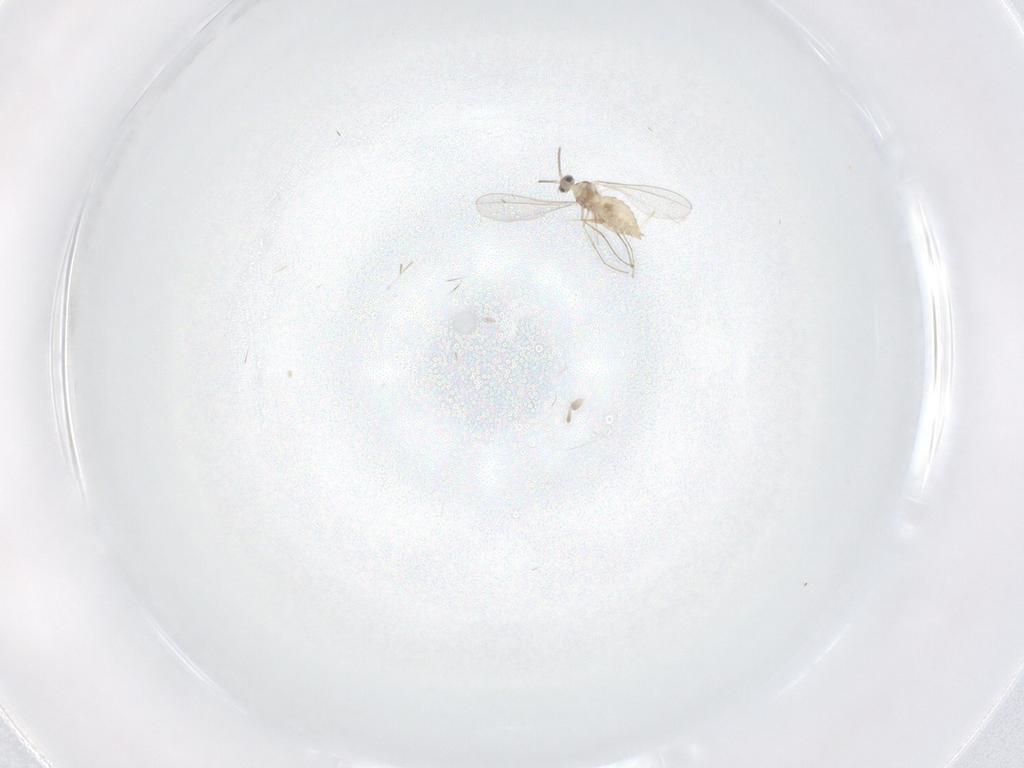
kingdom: Animalia
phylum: Arthropoda
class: Insecta
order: Diptera
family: Cecidomyiidae
